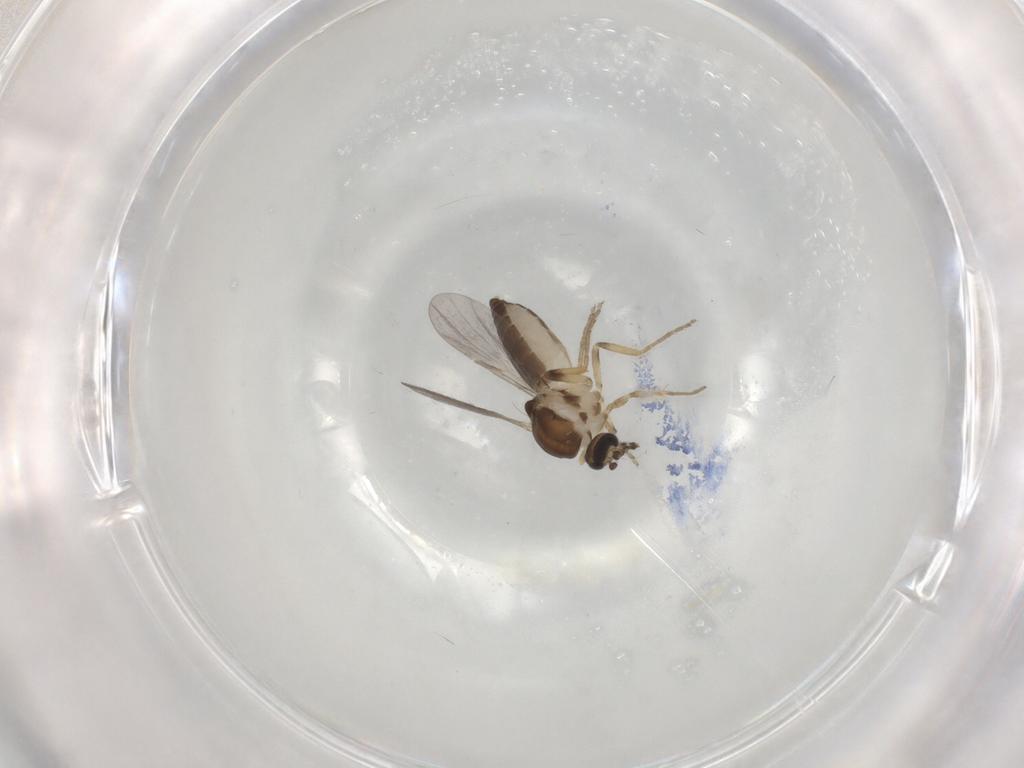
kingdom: Animalia
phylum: Arthropoda
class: Insecta
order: Diptera
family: Ceratopogonidae
